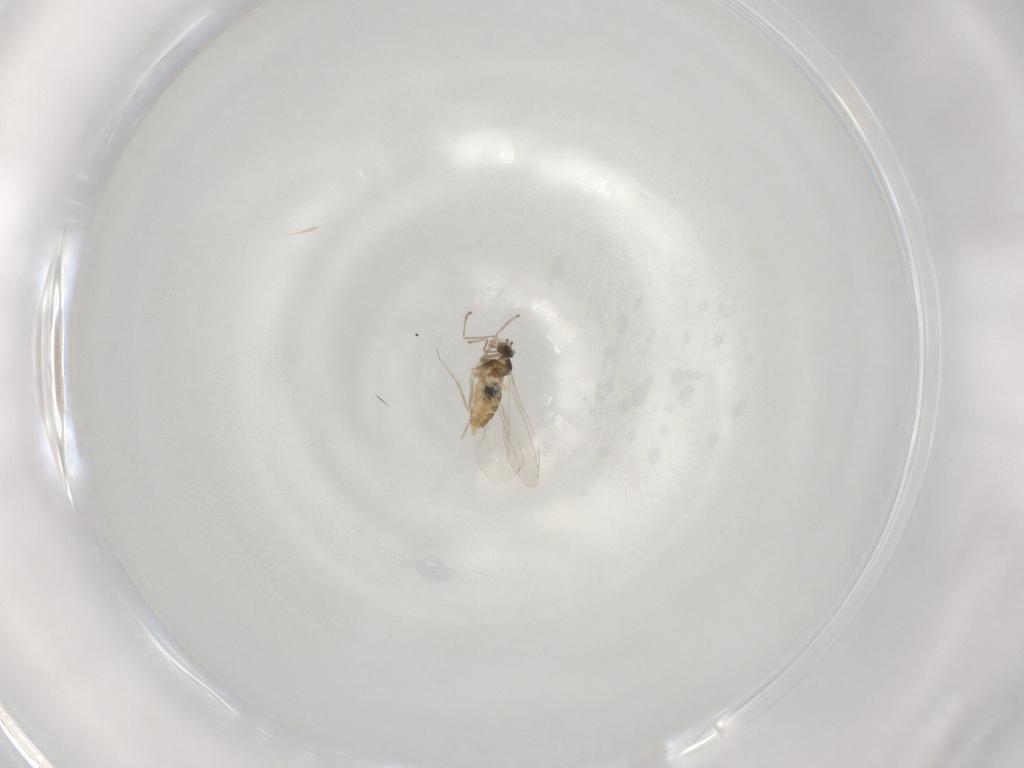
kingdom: Animalia
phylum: Arthropoda
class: Insecta
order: Diptera
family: Cecidomyiidae
